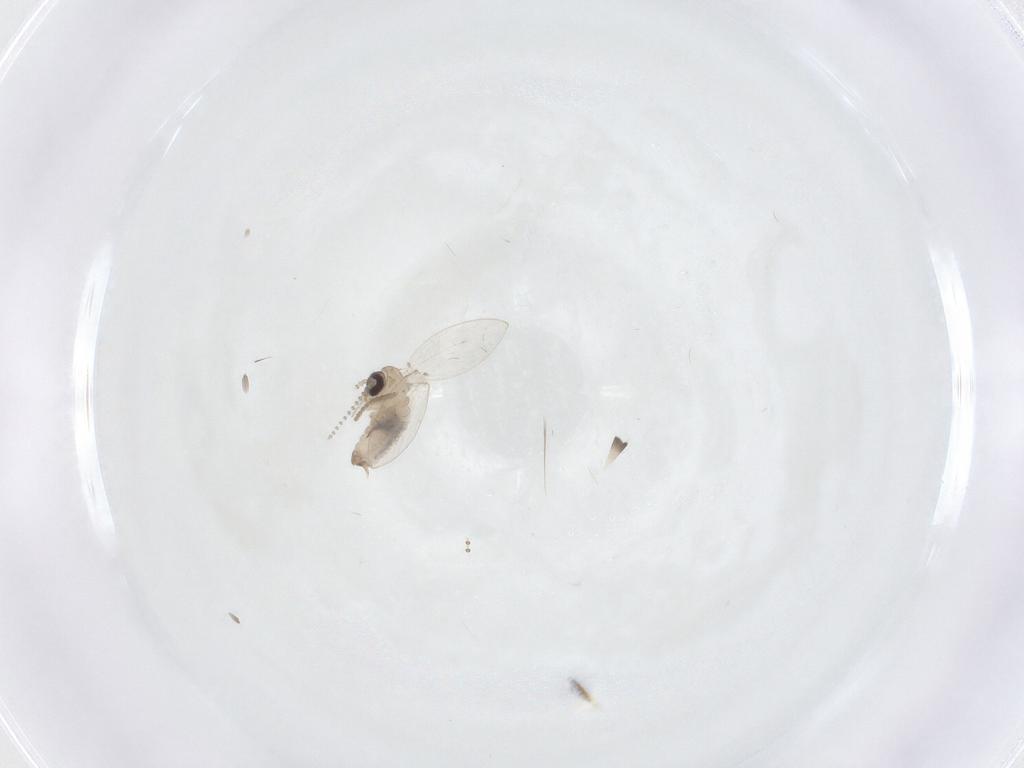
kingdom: Animalia
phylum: Arthropoda
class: Insecta
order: Diptera
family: Psychodidae
